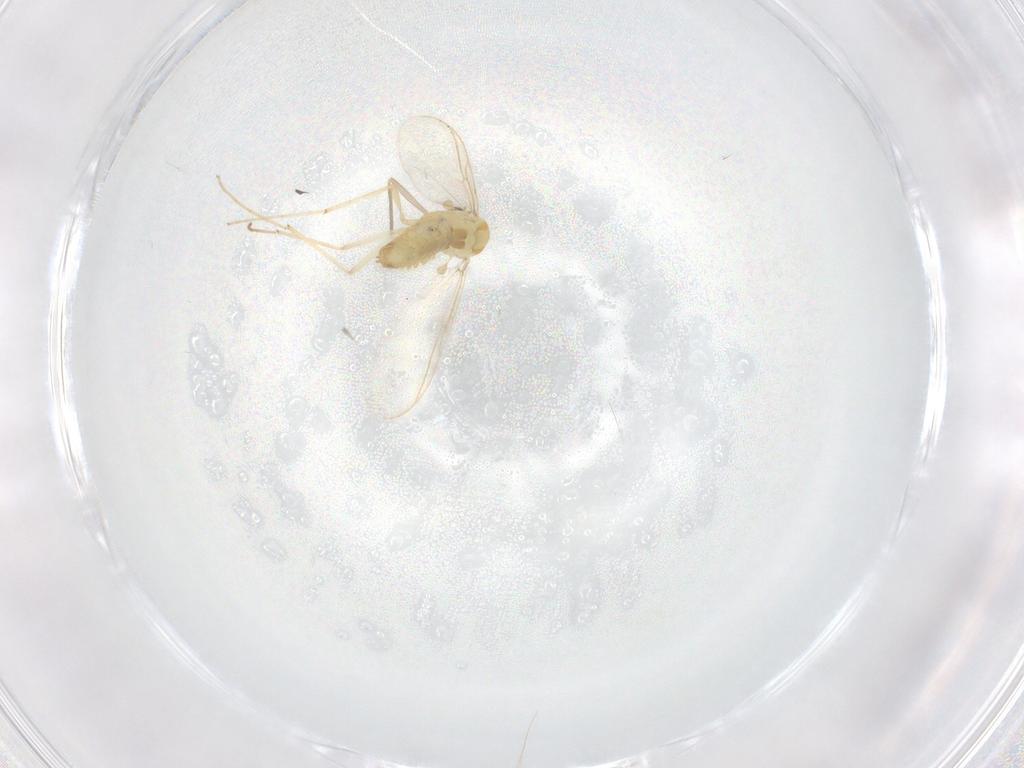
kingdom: Animalia
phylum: Arthropoda
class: Insecta
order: Diptera
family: Chironomidae
